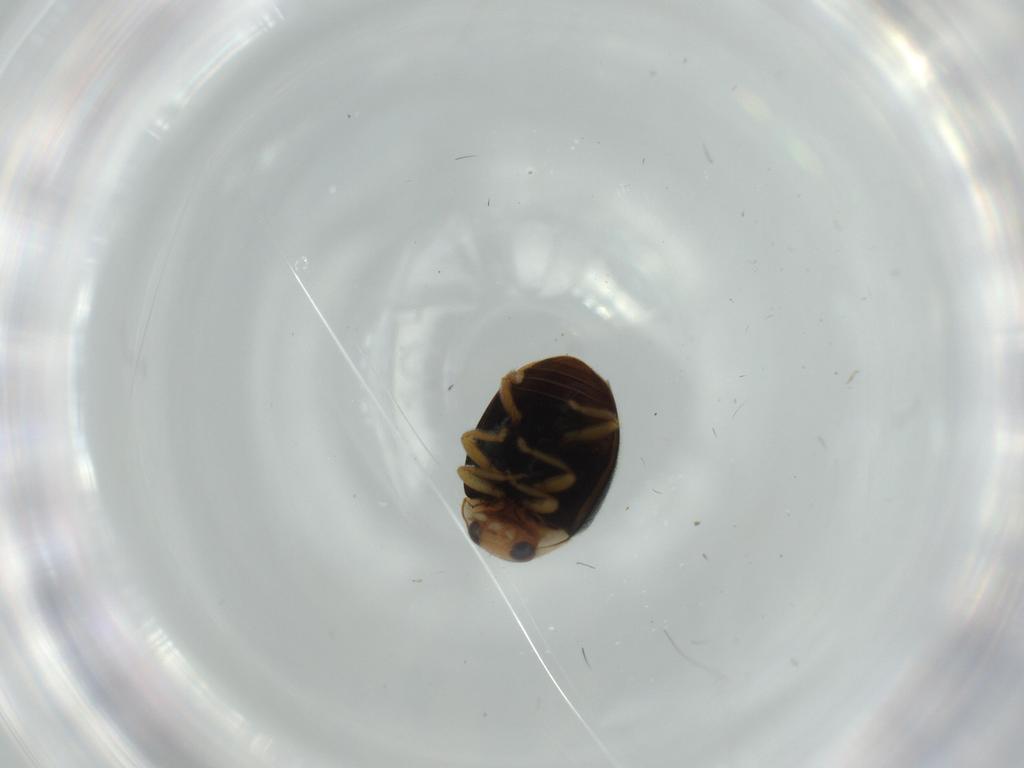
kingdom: Animalia
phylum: Arthropoda
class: Insecta
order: Coleoptera
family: Coccinellidae
